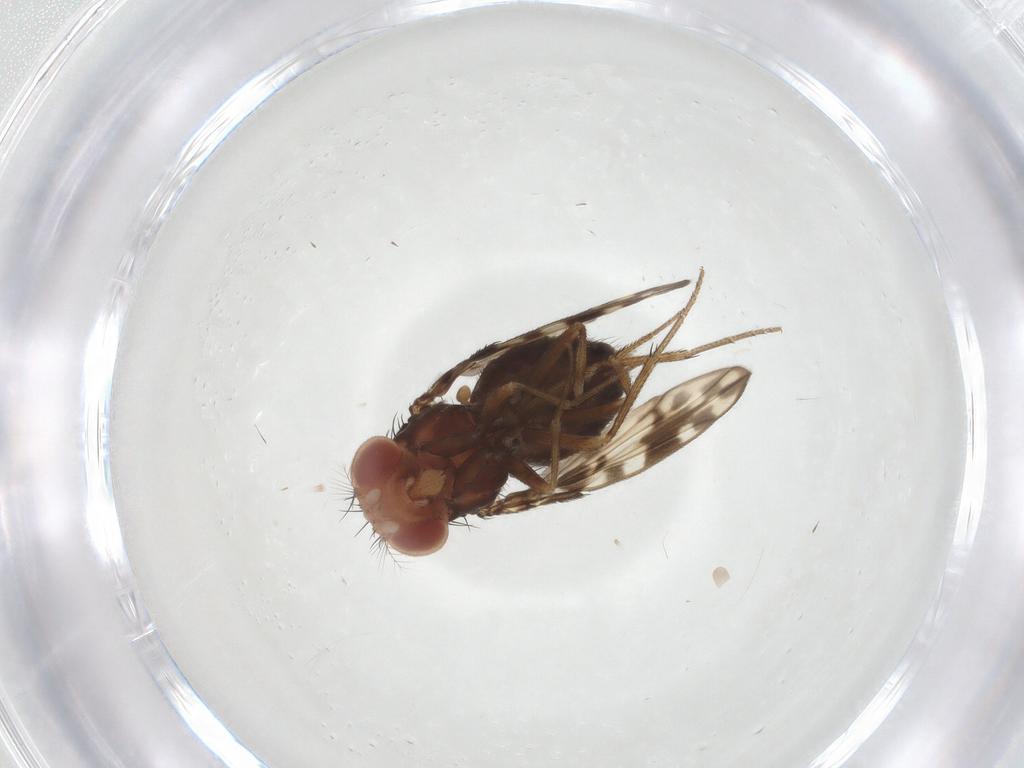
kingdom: Animalia
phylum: Arthropoda
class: Insecta
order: Diptera
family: Drosophilidae
